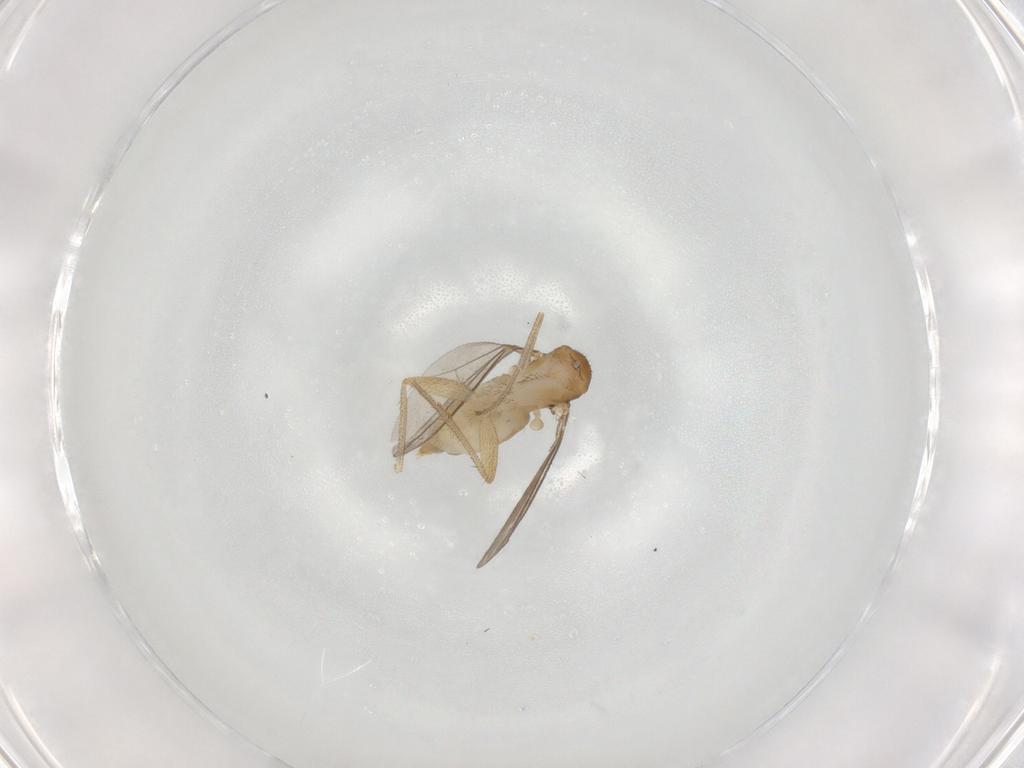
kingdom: Animalia
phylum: Arthropoda
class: Insecta
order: Diptera
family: Dolichopodidae
